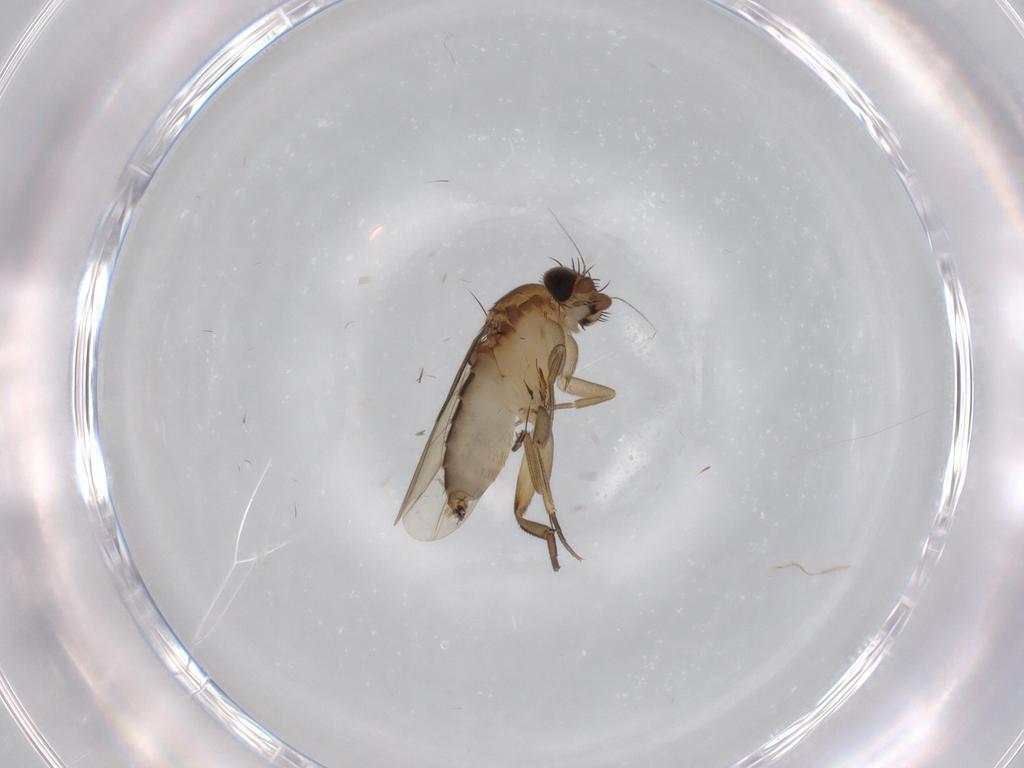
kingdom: Animalia
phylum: Arthropoda
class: Insecta
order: Diptera
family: Phoridae
